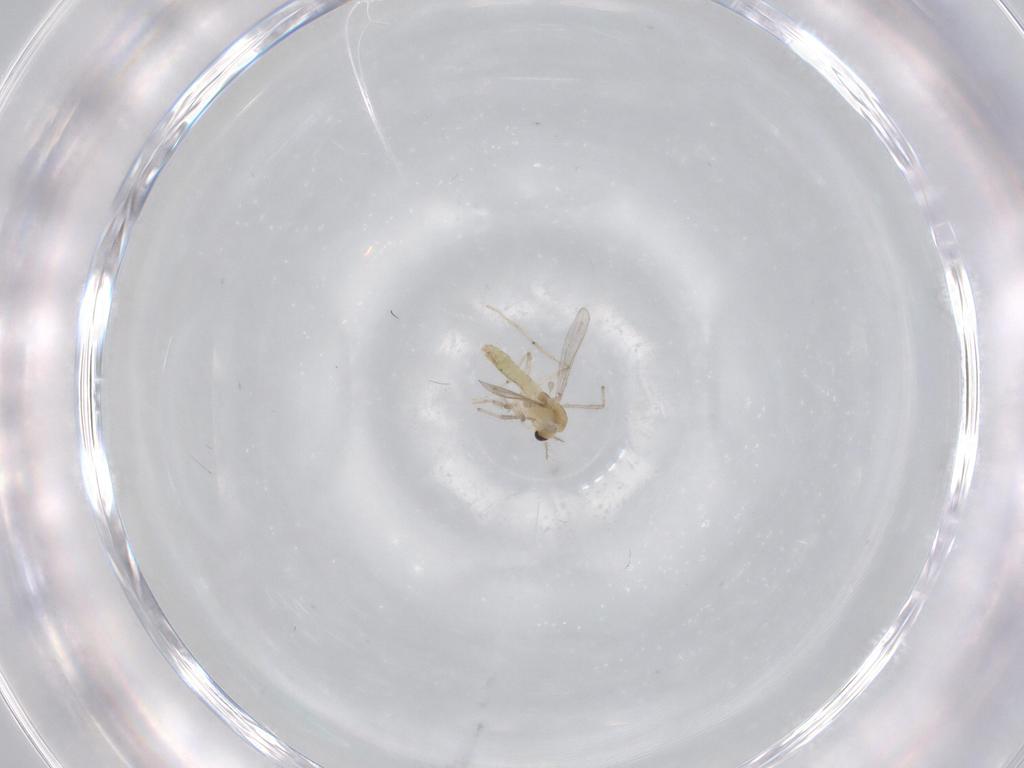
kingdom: Animalia
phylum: Arthropoda
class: Insecta
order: Diptera
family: Chironomidae
